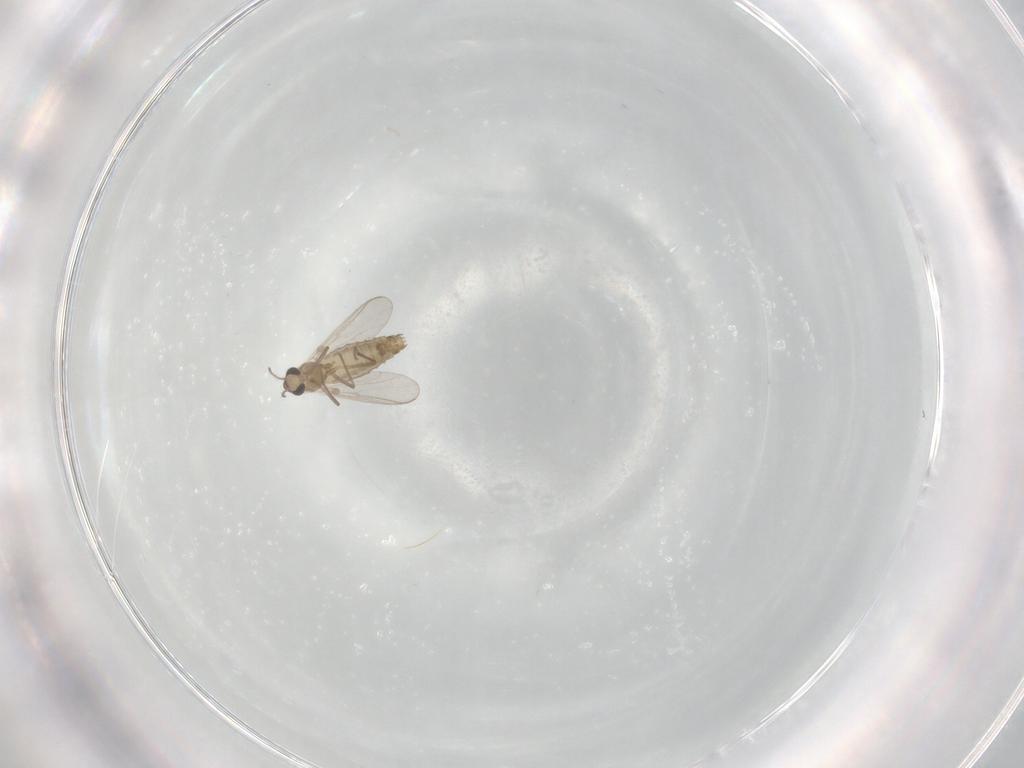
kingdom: Animalia
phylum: Arthropoda
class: Insecta
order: Diptera
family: Chironomidae
